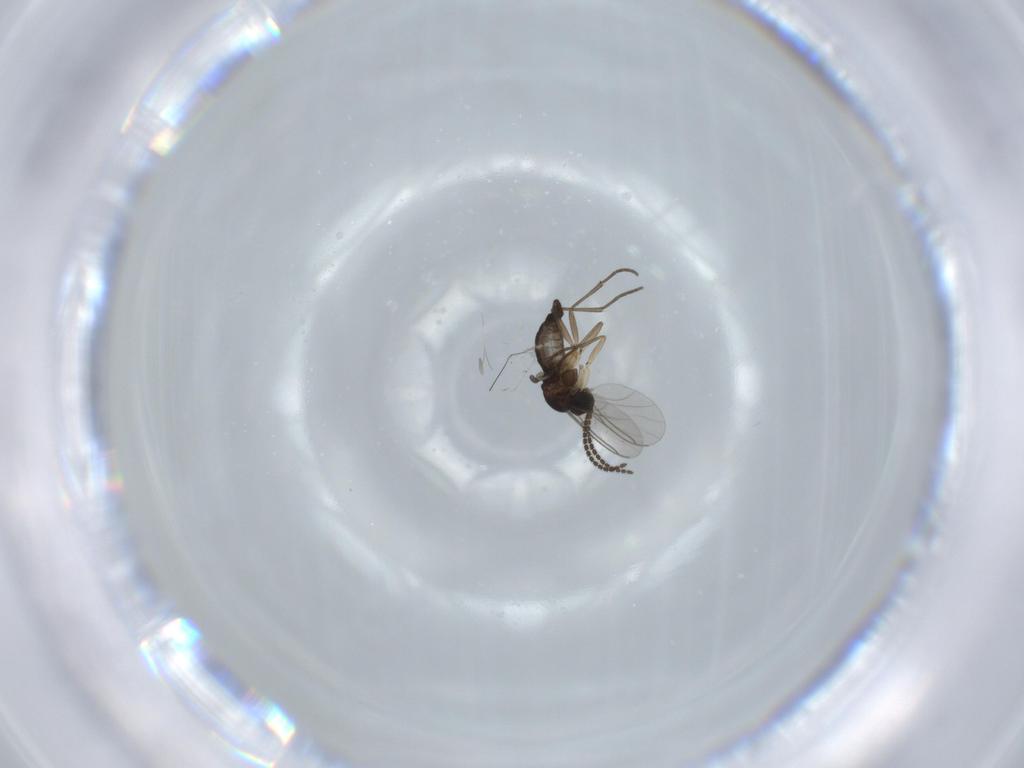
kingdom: Animalia
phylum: Arthropoda
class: Insecta
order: Diptera
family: Sciaridae
